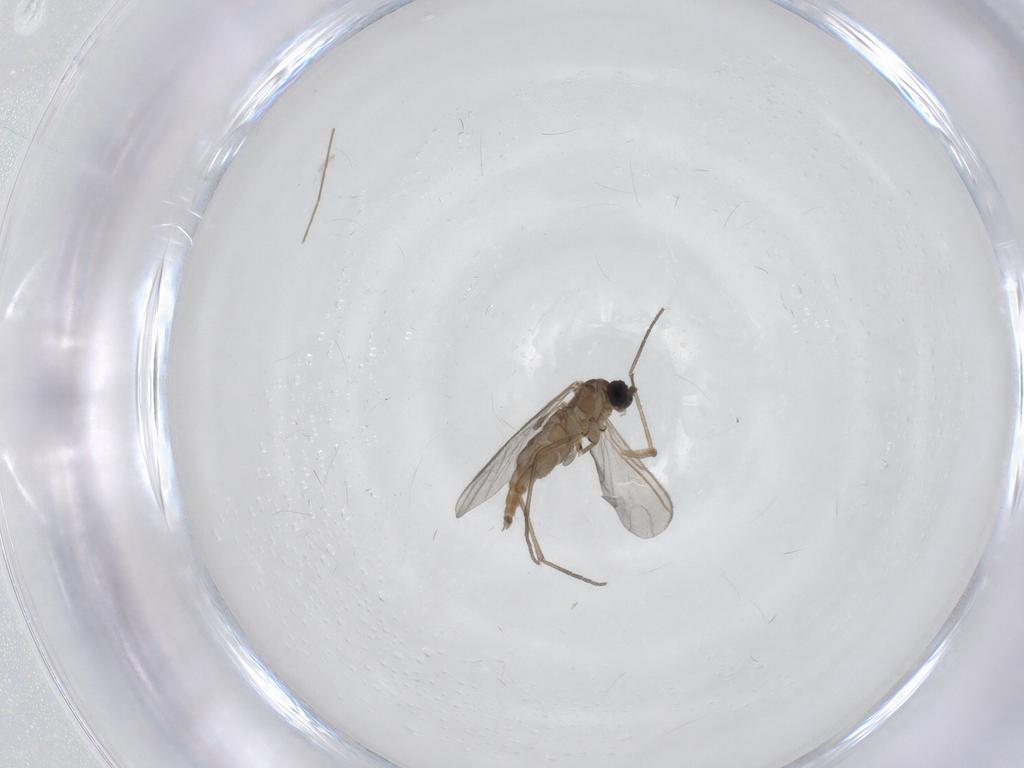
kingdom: Animalia
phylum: Arthropoda
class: Insecta
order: Diptera
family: Sciaridae
